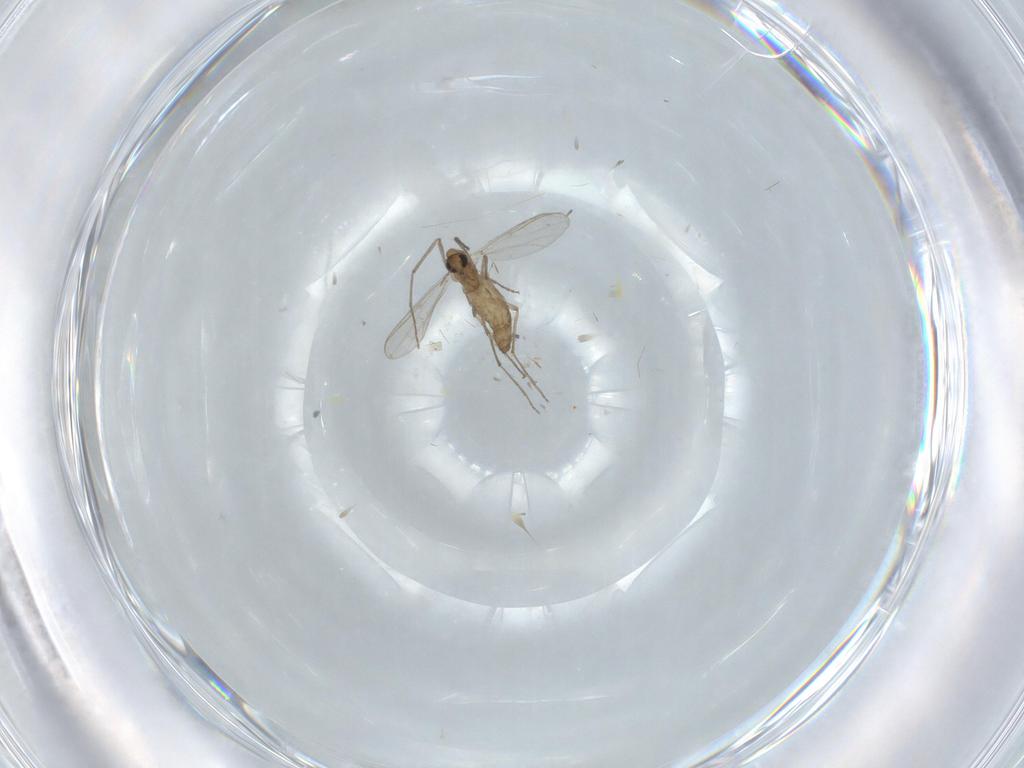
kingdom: Animalia
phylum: Arthropoda
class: Insecta
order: Diptera
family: Chironomidae
